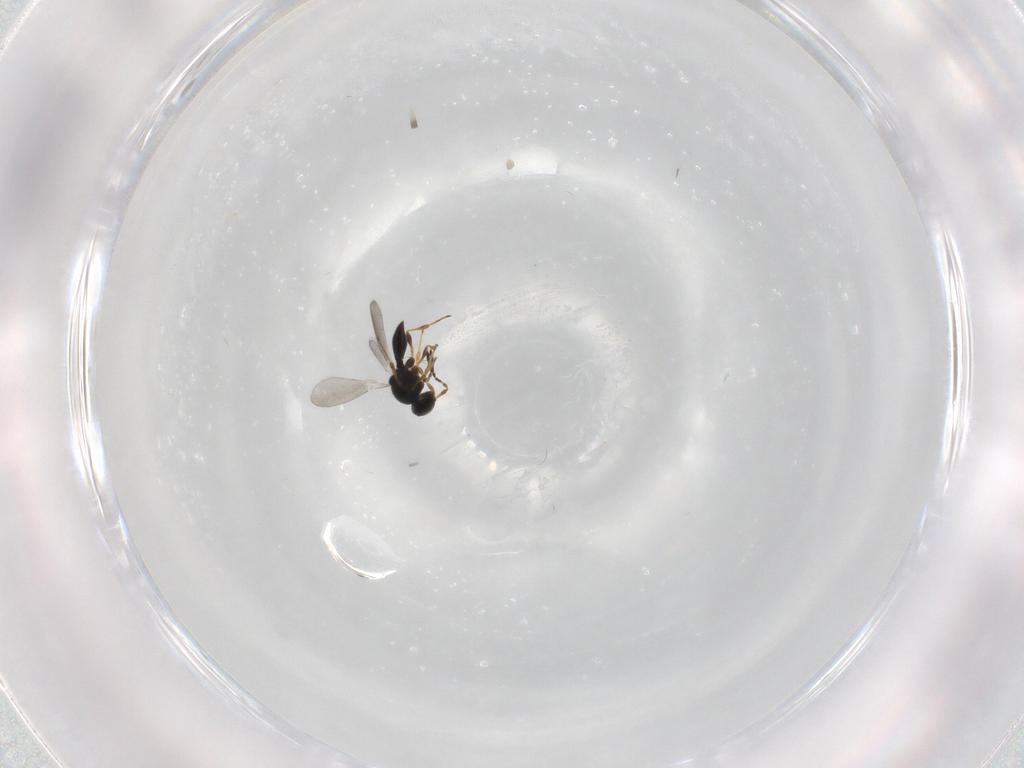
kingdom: Animalia
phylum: Arthropoda
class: Insecta
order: Hymenoptera
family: Platygastridae
